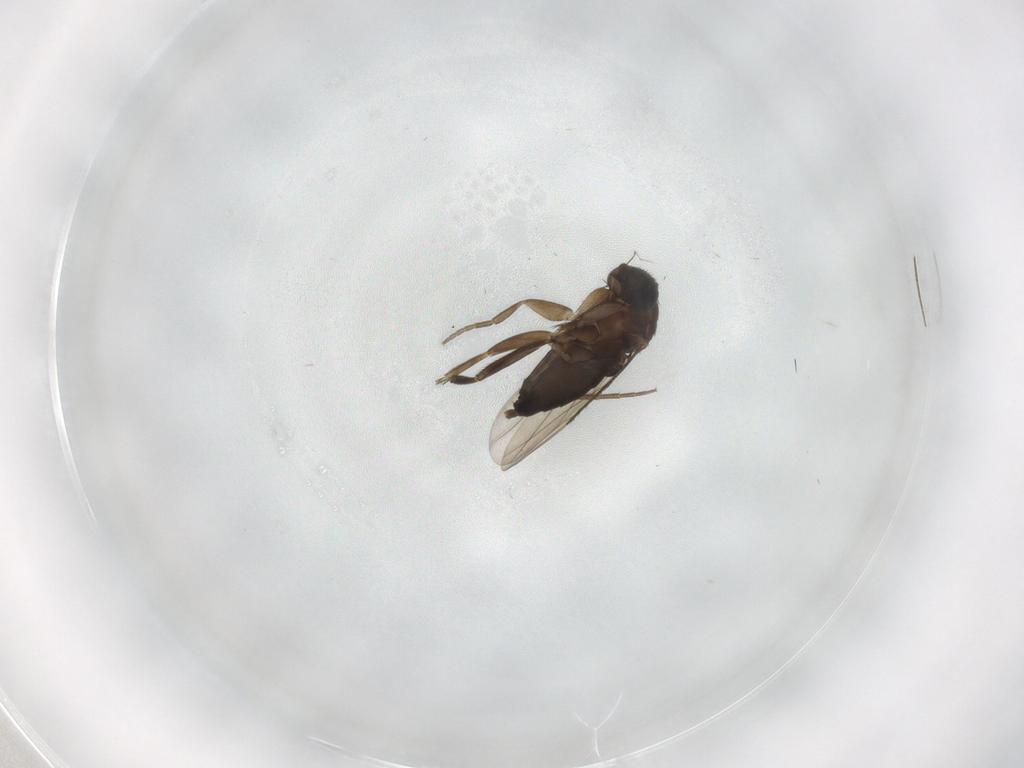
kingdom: Animalia
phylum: Arthropoda
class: Insecta
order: Diptera
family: Phoridae
